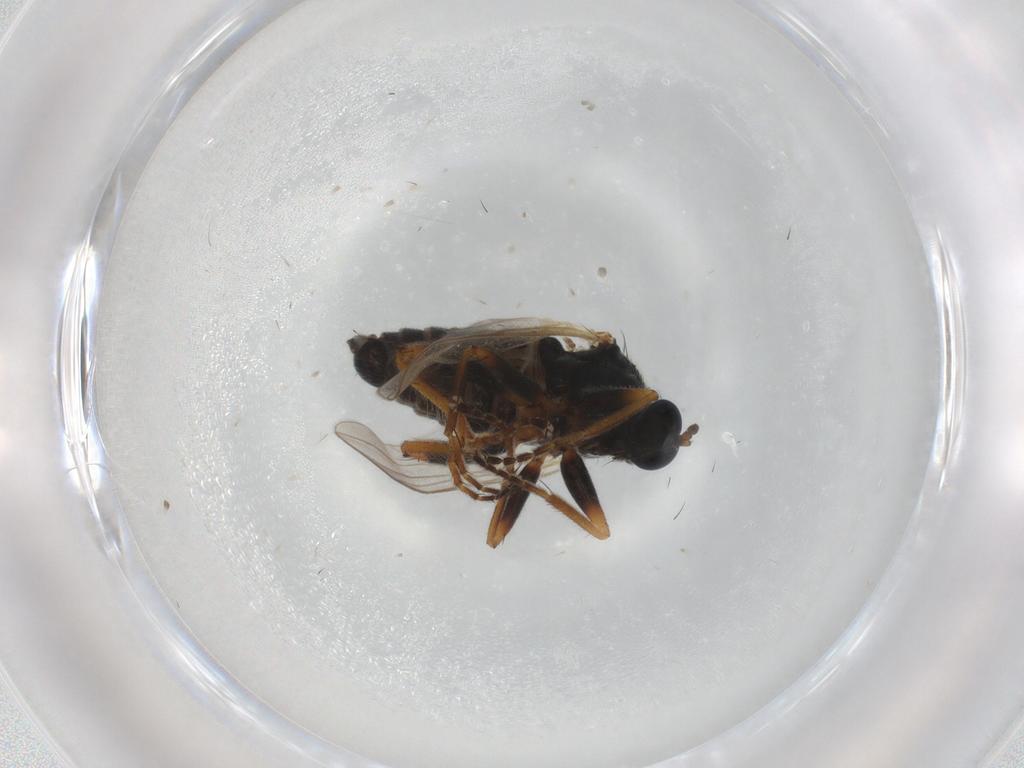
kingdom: Animalia
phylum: Arthropoda
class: Insecta
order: Diptera
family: Hybotidae
